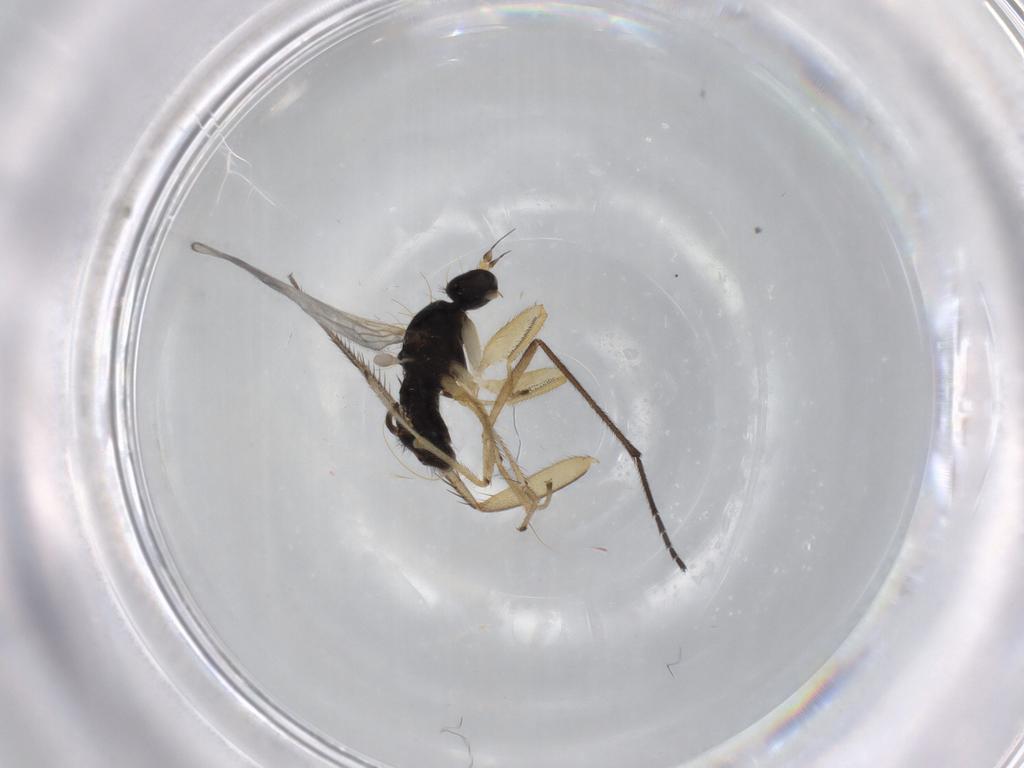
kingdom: Animalia
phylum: Arthropoda
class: Insecta
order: Diptera
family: Empididae
